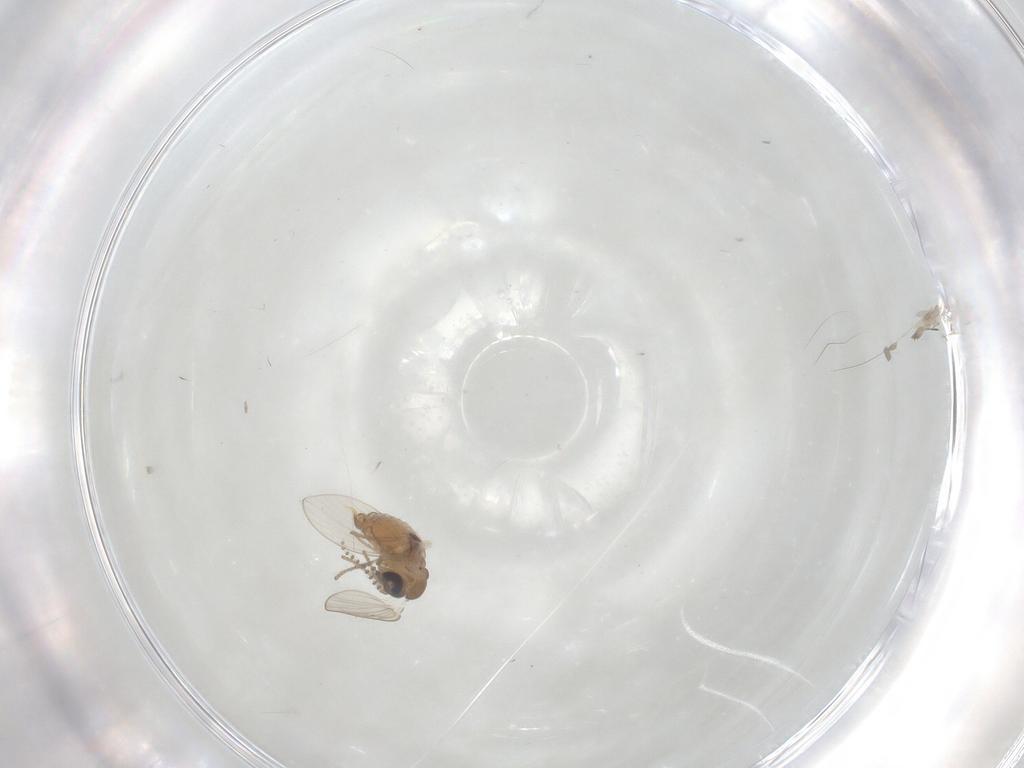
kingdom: Animalia
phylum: Arthropoda
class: Insecta
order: Diptera
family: Psychodidae
